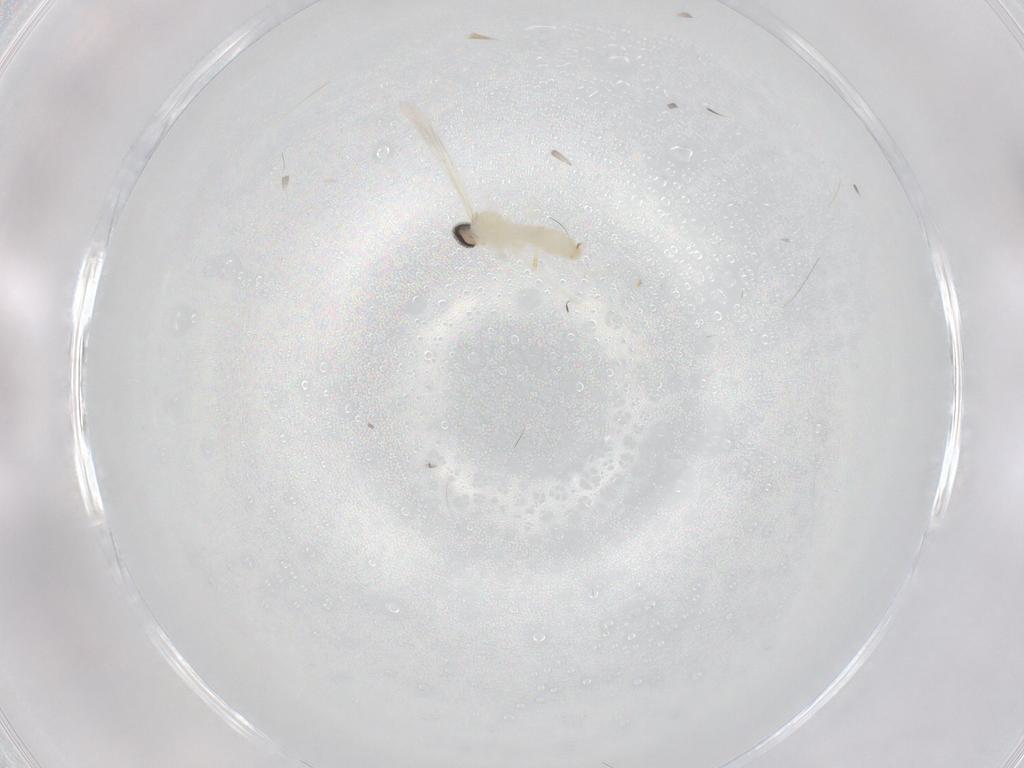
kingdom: Animalia
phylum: Arthropoda
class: Insecta
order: Diptera
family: Cecidomyiidae
